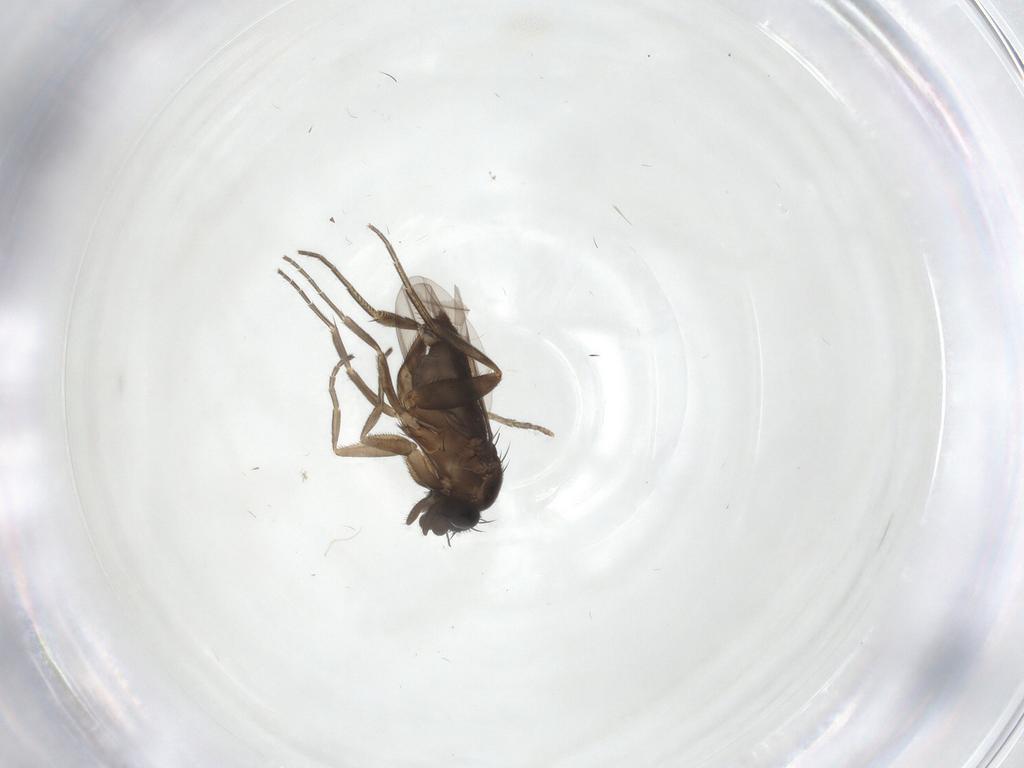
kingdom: Animalia
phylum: Arthropoda
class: Insecta
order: Diptera
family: Phoridae
